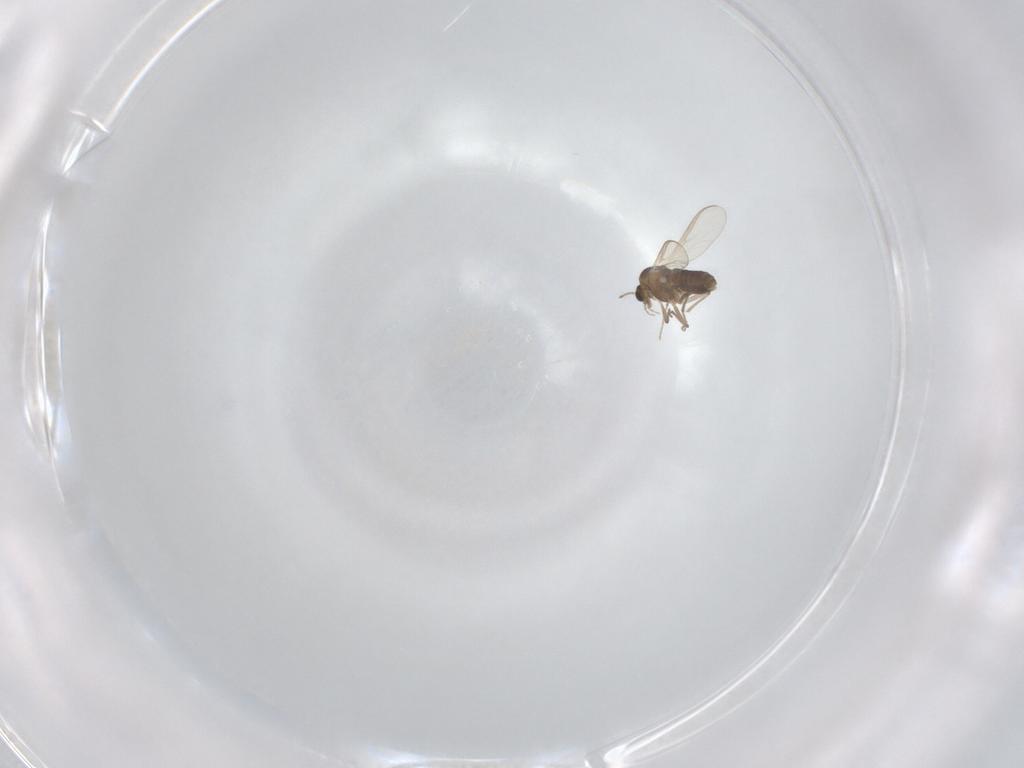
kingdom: Animalia
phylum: Arthropoda
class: Insecta
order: Diptera
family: Chironomidae
